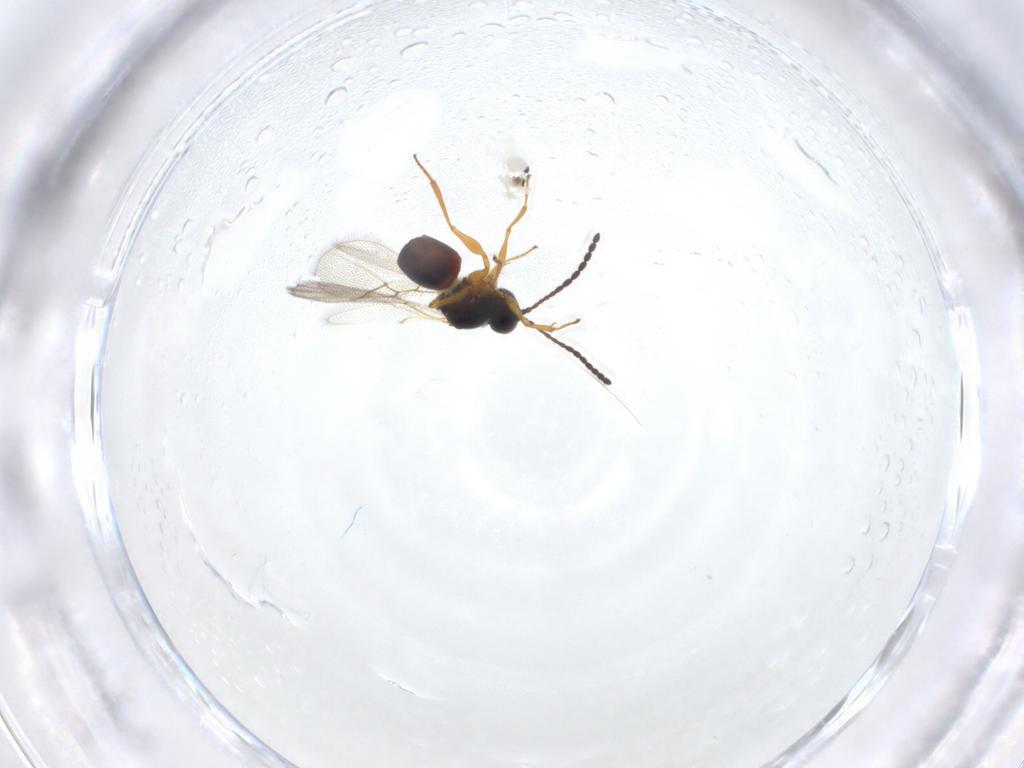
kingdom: Animalia
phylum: Arthropoda
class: Insecta
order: Hymenoptera
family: Figitidae
